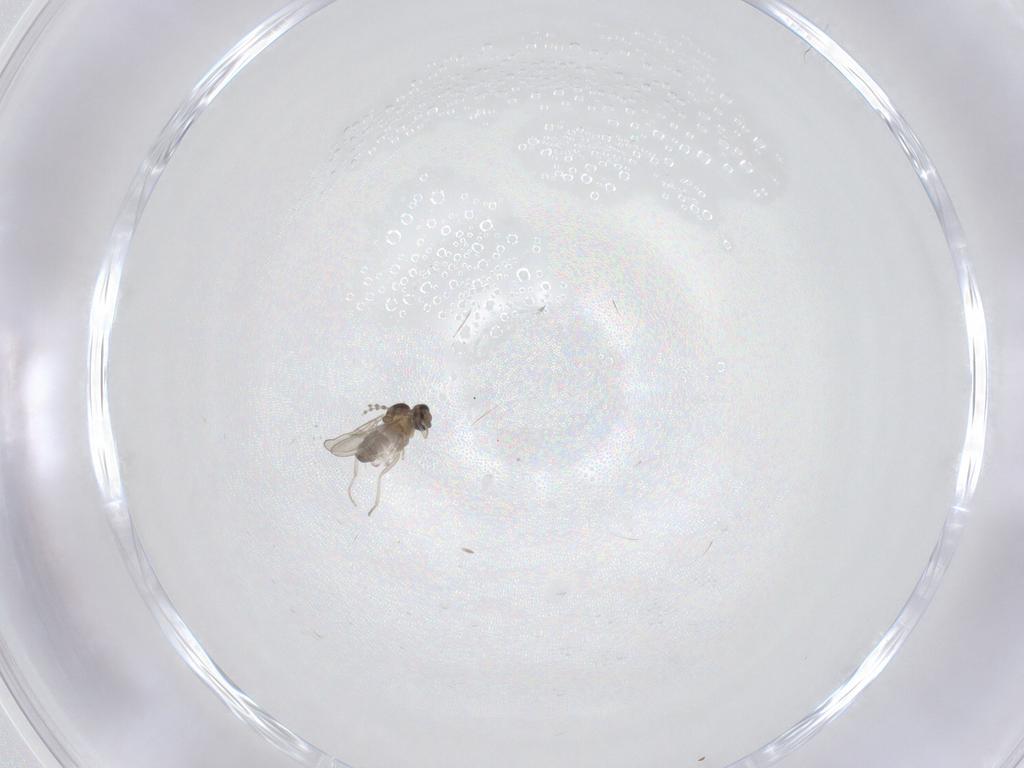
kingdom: Animalia
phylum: Arthropoda
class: Insecta
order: Diptera
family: Cecidomyiidae
